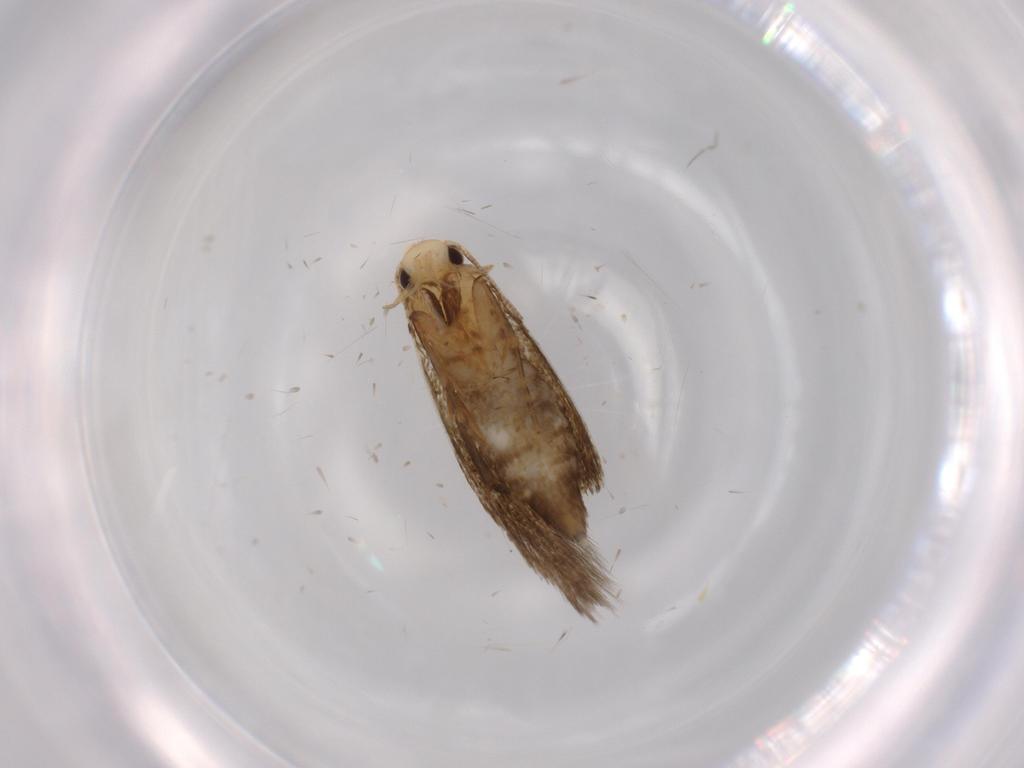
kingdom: Animalia
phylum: Arthropoda
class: Insecta
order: Lepidoptera
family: Tineidae
